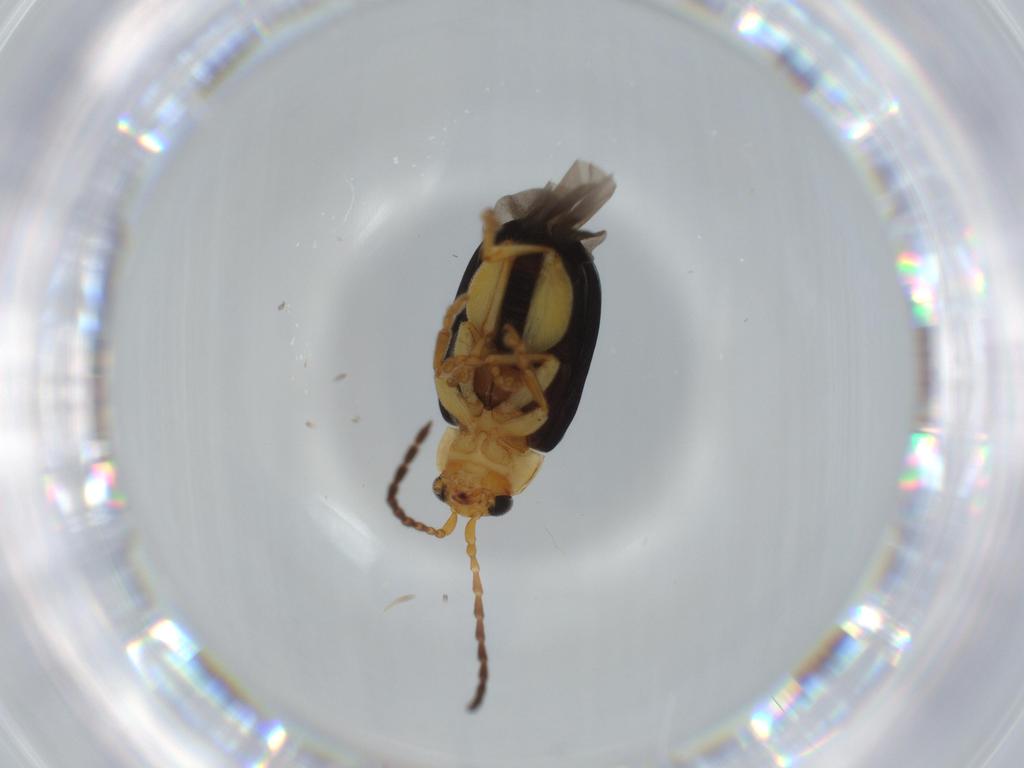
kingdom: Animalia
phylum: Arthropoda
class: Insecta
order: Coleoptera
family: Chrysomelidae
